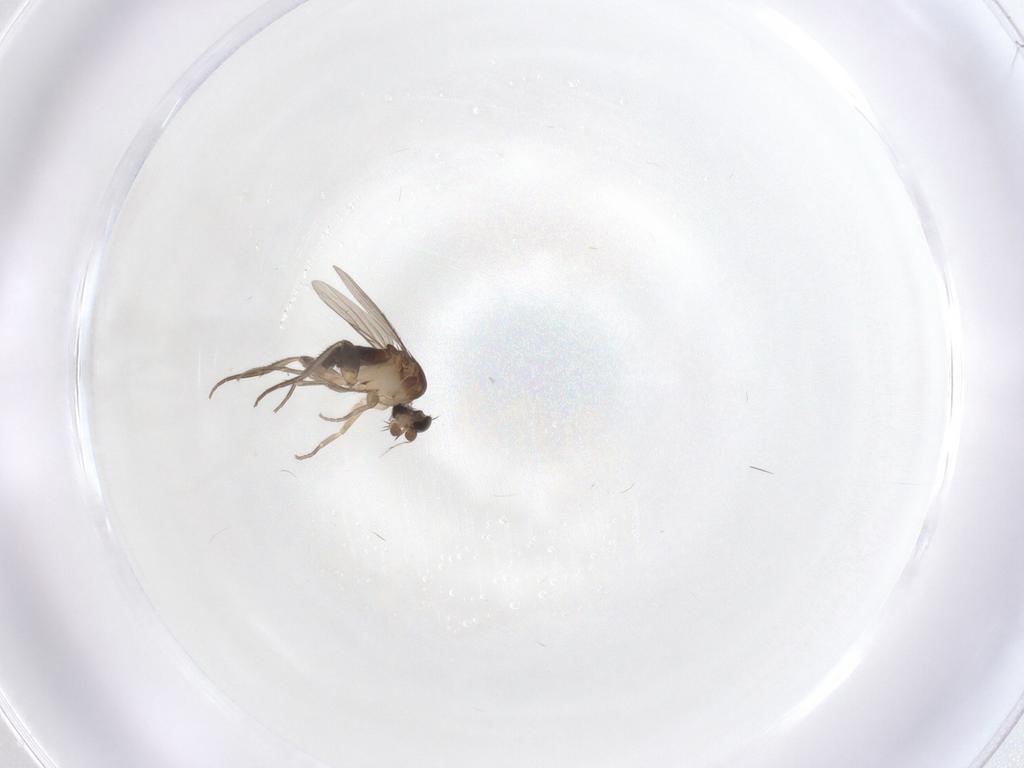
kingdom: Animalia
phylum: Arthropoda
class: Insecta
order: Diptera
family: Phoridae
